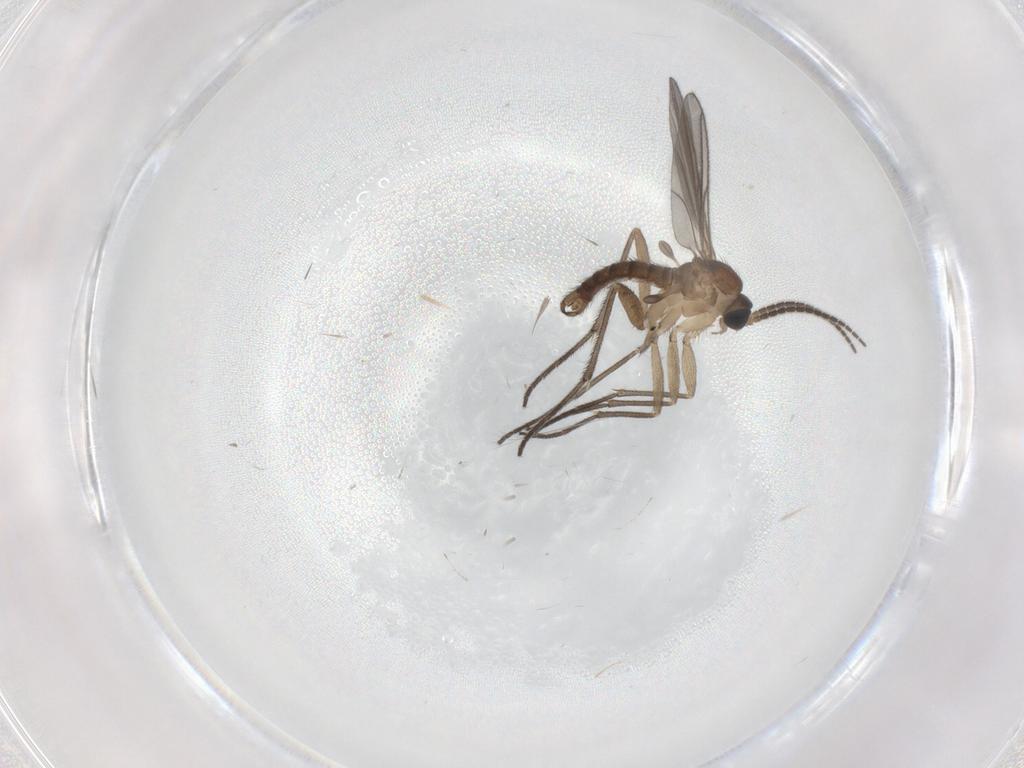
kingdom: Animalia
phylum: Arthropoda
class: Insecta
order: Diptera
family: Sciaridae
